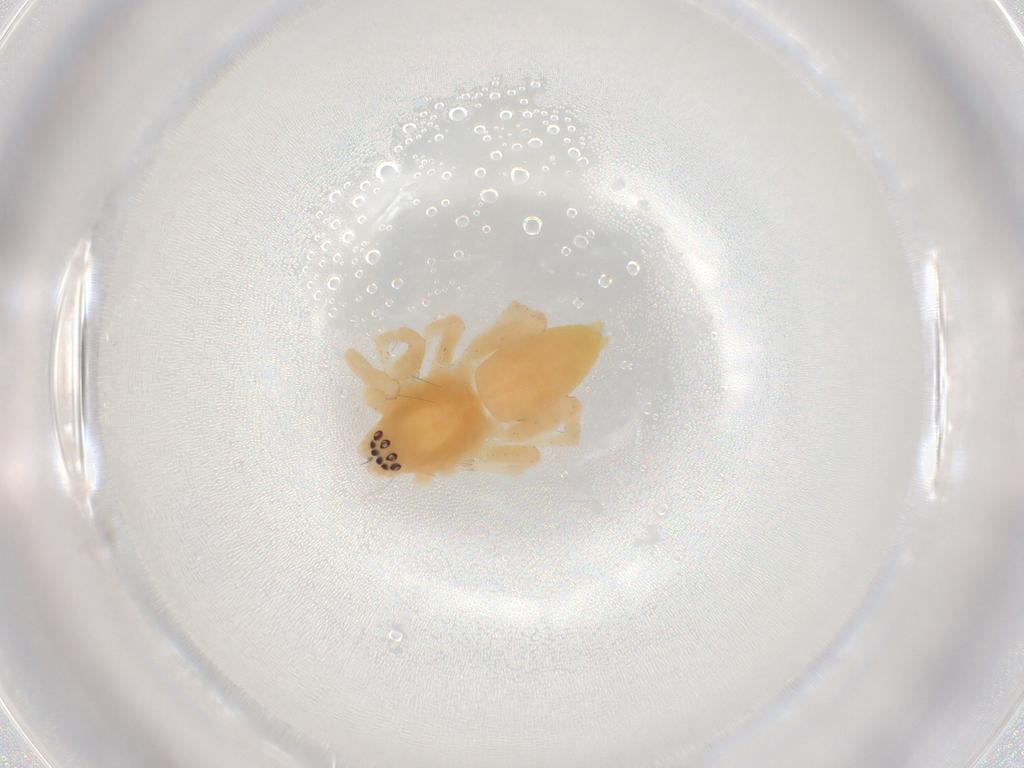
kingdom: Animalia
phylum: Arthropoda
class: Arachnida
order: Araneae
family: Anyphaenidae
